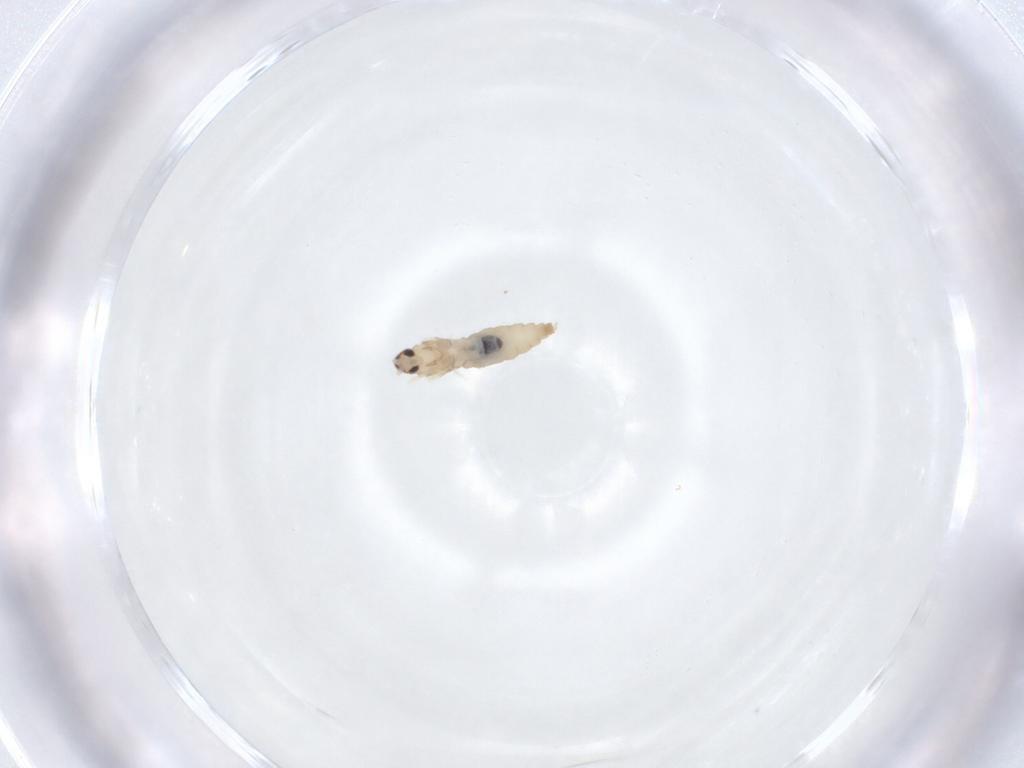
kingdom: Animalia
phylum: Arthropoda
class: Insecta
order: Diptera
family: Cecidomyiidae
